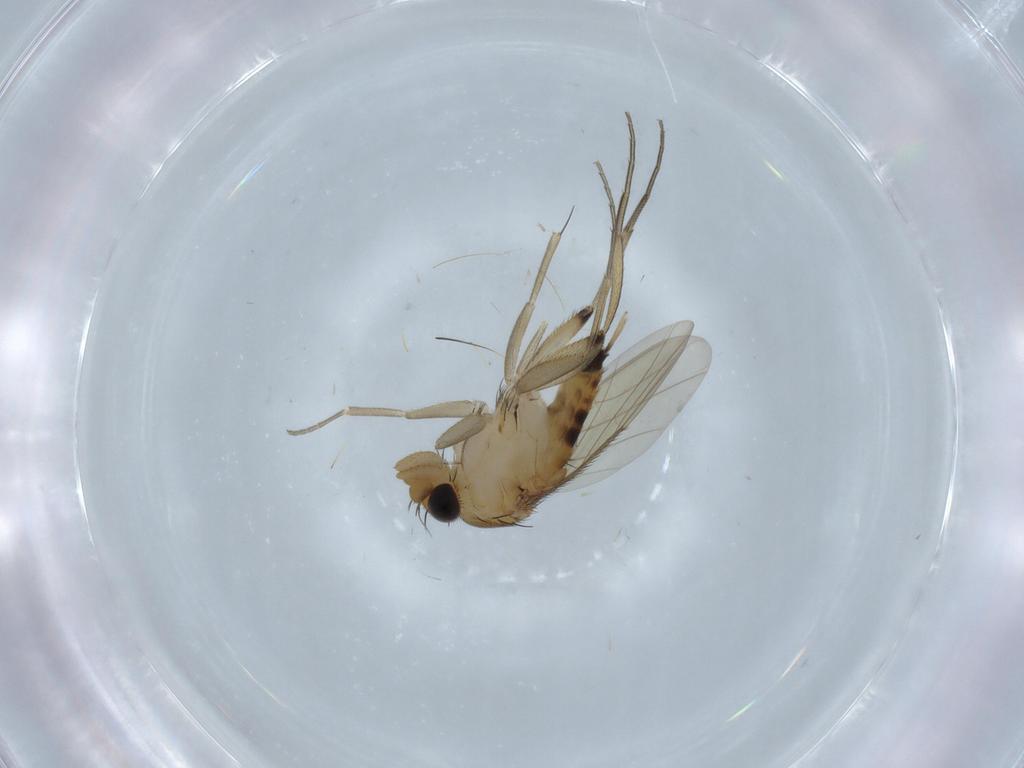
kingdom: Animalia
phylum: Arthropoda
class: Insecta
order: Diptera
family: Phoridae
